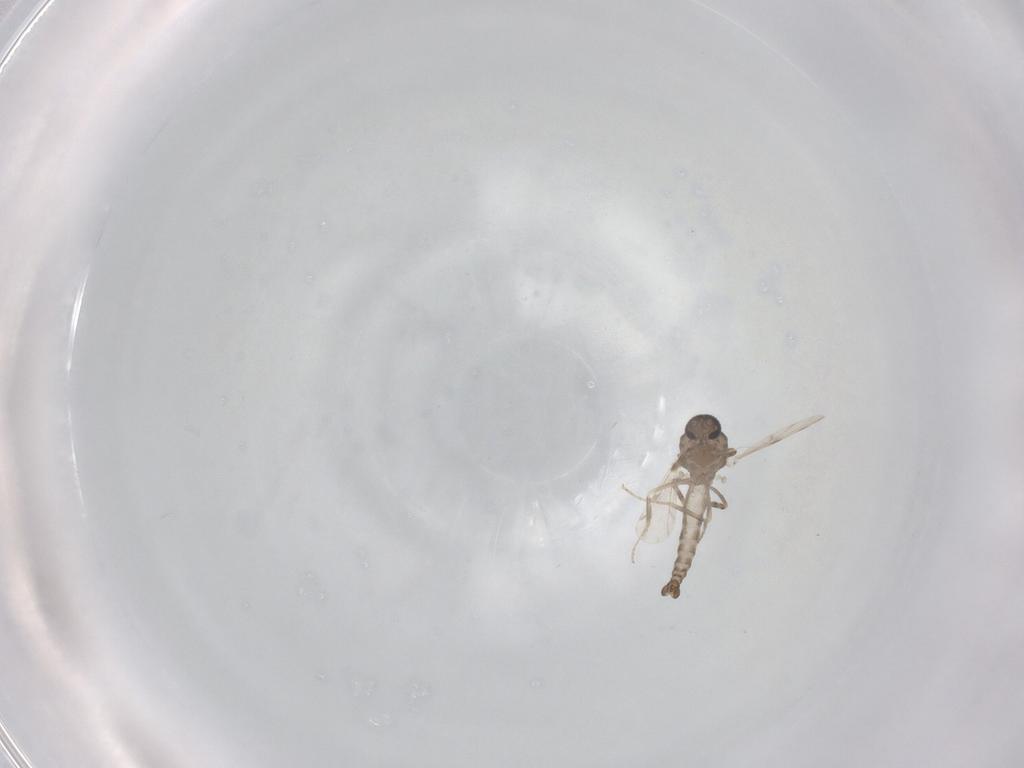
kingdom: Animalia
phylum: Arthropoda
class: Insecta
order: Diptera
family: Ceratopogonidae
